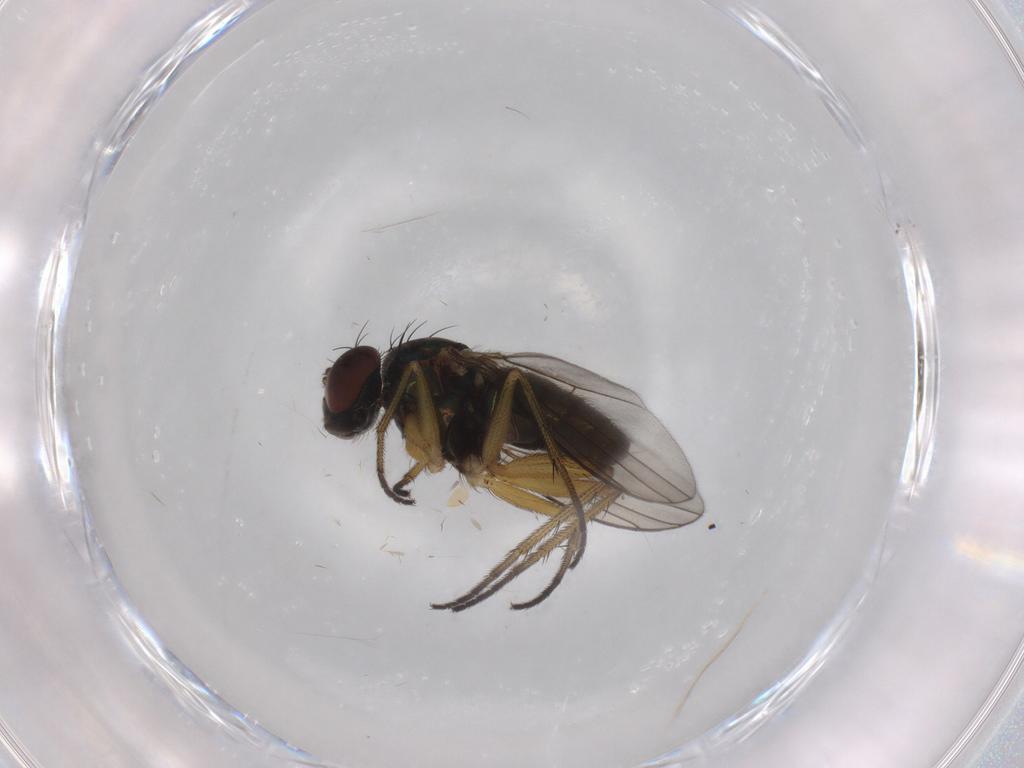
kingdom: Animalia
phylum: Arthropoda
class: Insecta
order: Diptera
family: Dolichopodidae
